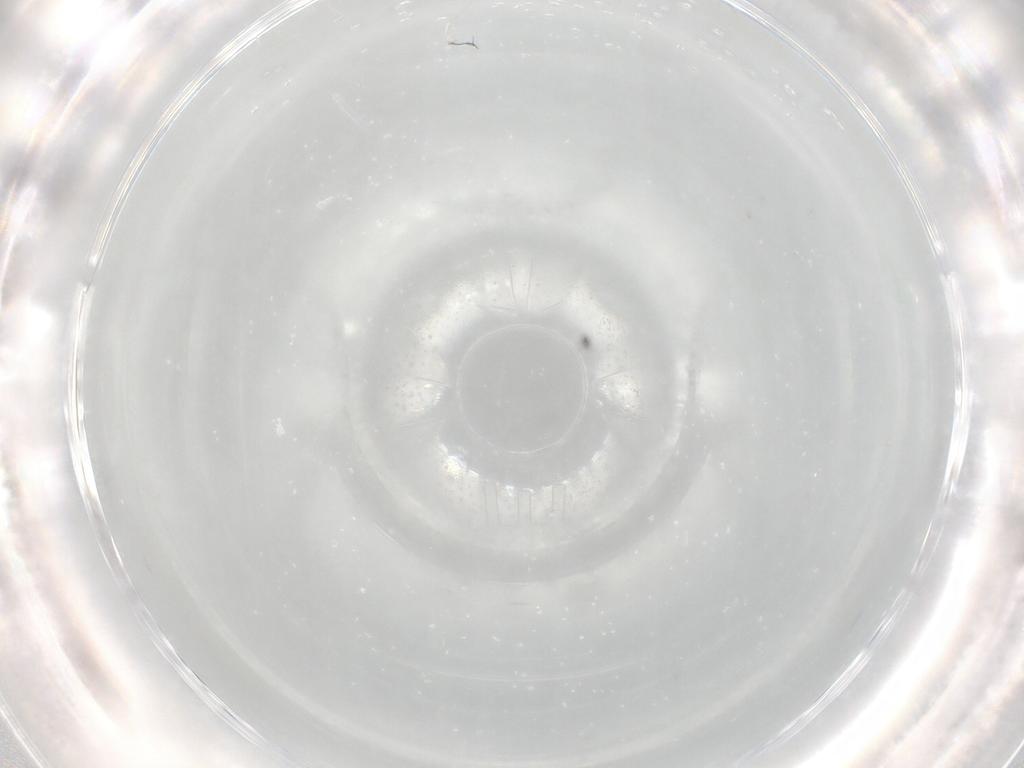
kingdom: Animalia
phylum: Arthropoda
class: Arachnida
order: Trombidiformes
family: Erythraeidae
